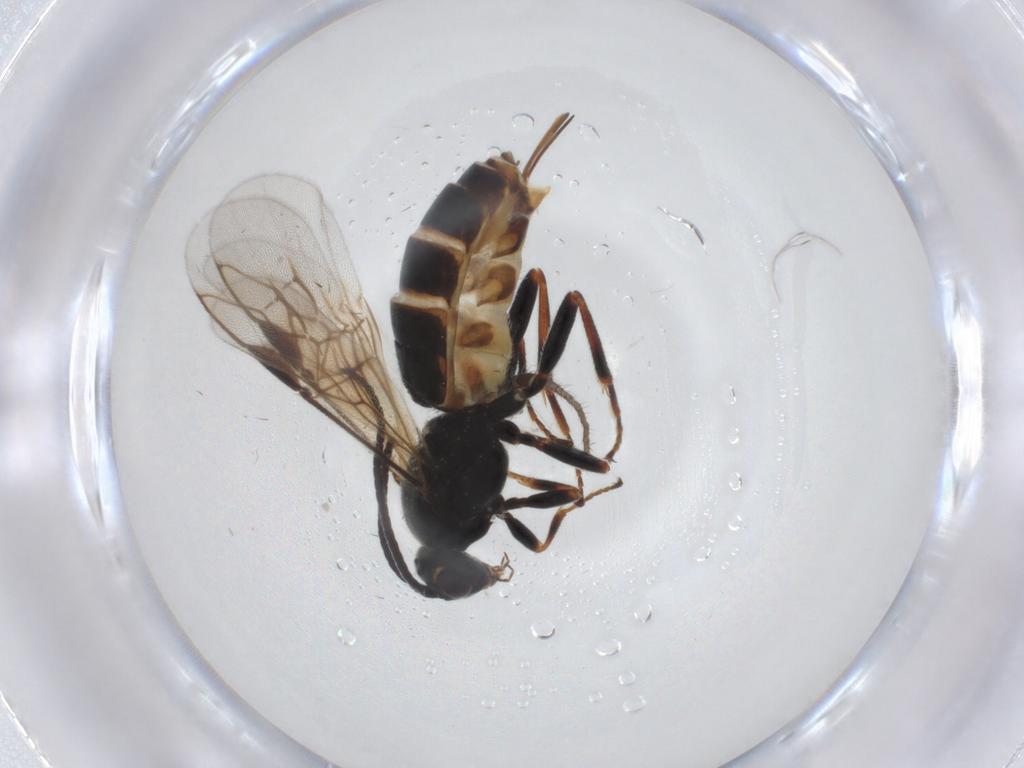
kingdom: Animalia
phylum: Arthropoda
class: Insecta
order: Hymenoptera
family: Braconidae
